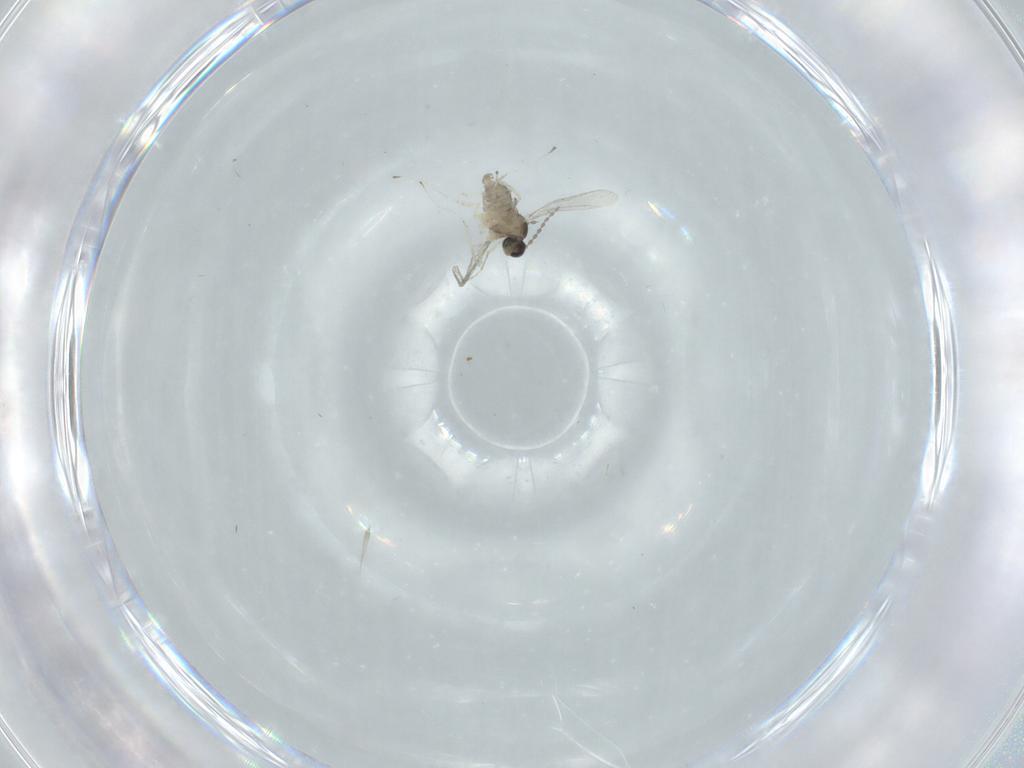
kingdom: Animalia
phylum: Arthropoda
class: Insecta
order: Diptera
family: Cecidomyiidae
